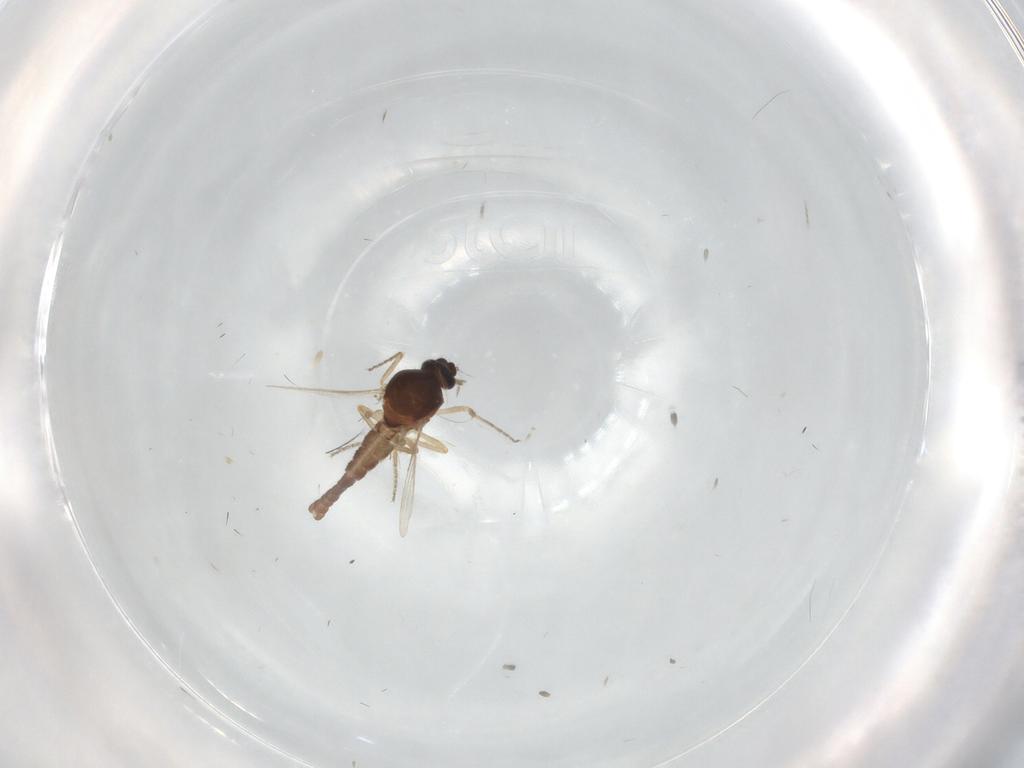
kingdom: Animalia
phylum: Arthropoda
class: Insecta
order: Diptera
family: Ceratopogonidae
